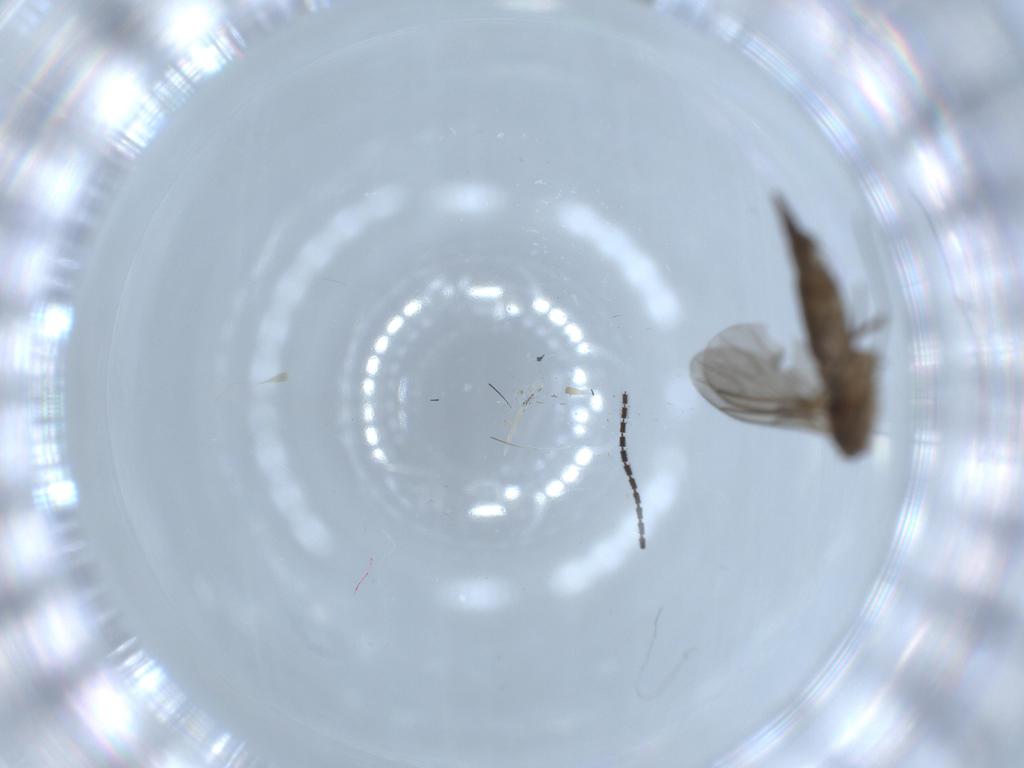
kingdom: Animalia
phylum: Arthropoda
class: Insecta
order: Diptera
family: Sciaridae
